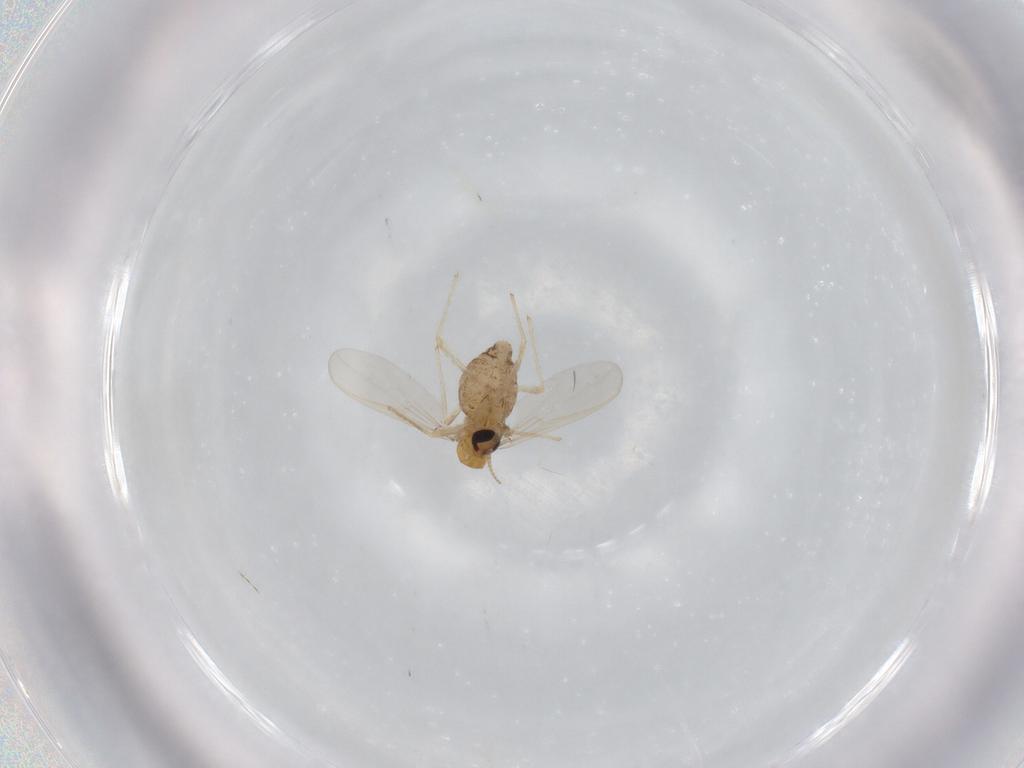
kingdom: Animalia
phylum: Arthropoda
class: Insecta
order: Diptera
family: Chironomidae
